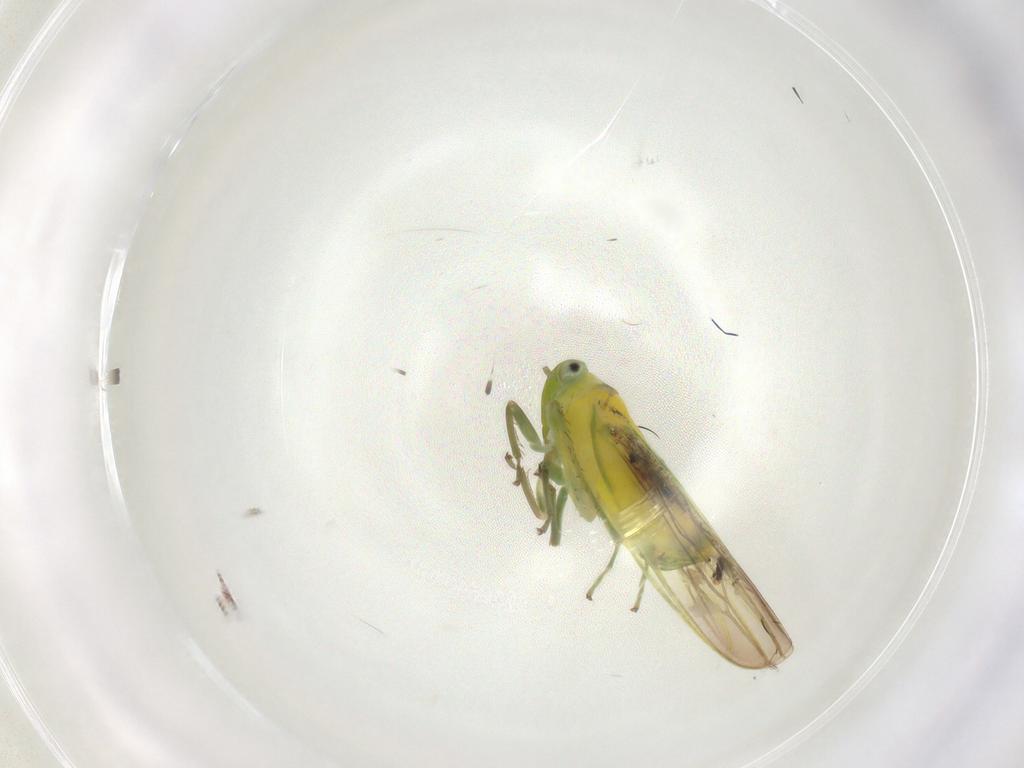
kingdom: Animalia
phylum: Arthropoda
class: Insecta
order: Hemiptera
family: Cicadellidae
